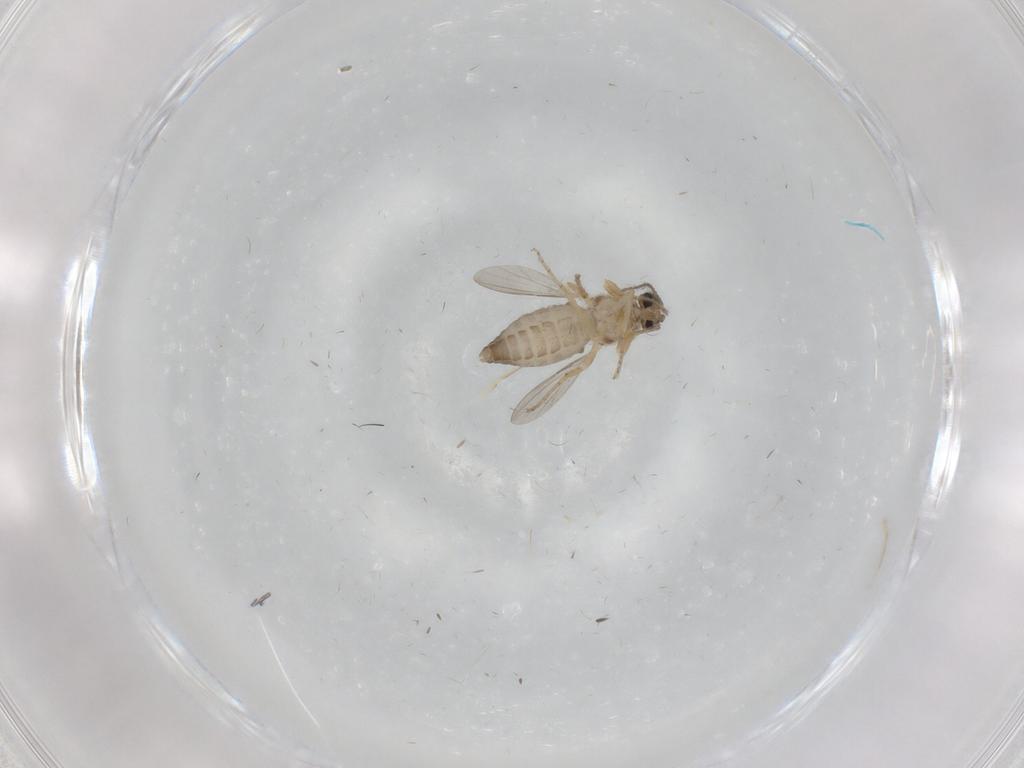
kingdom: Animalia
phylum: Arthropoda
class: Insecta
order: Diptera
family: Ceratopogonidae
